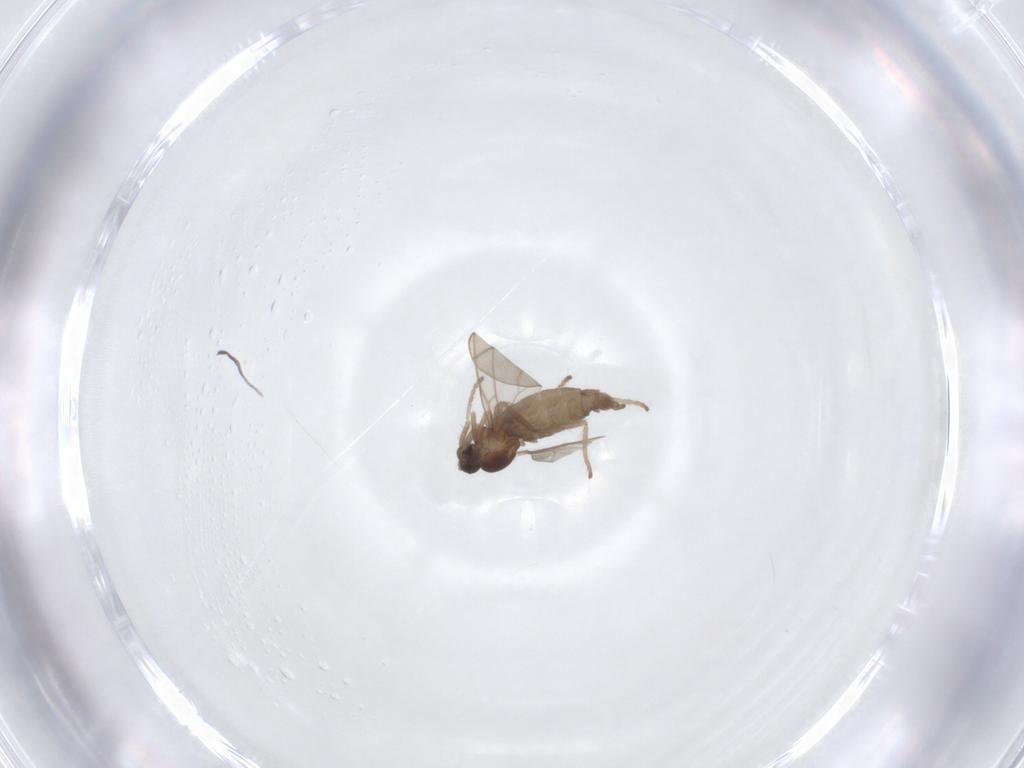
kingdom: Animalia
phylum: Arthropoda
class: Insecta
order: Diptera
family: Cecidomyiidae
